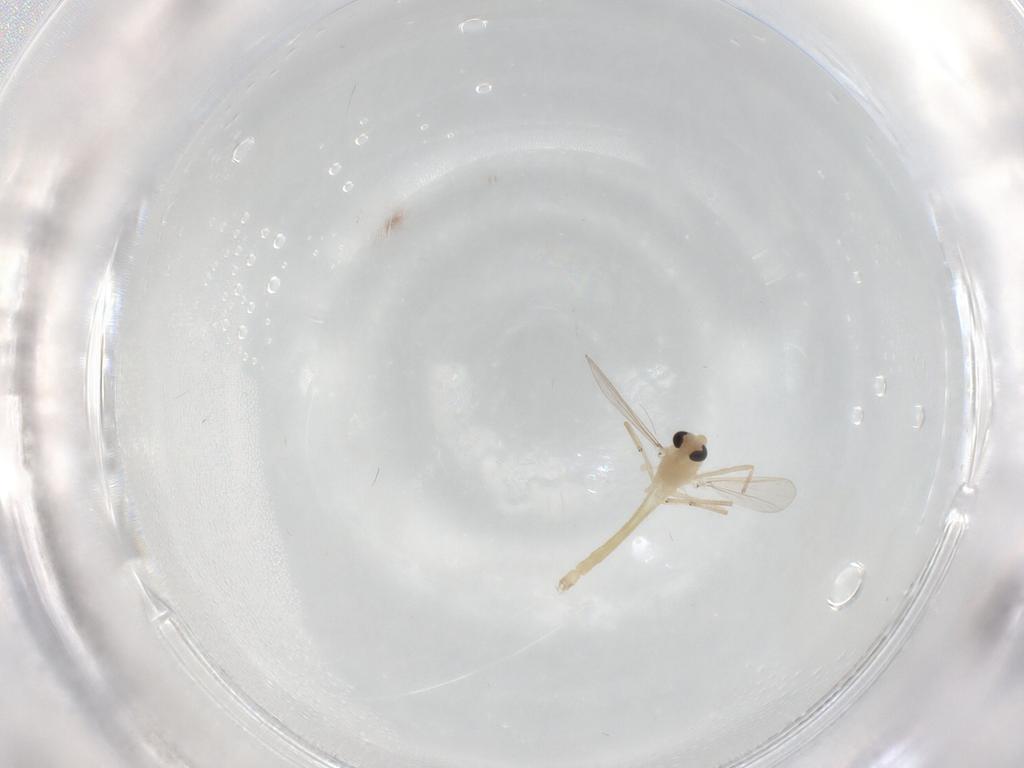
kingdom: Animalia
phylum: Arthropoda
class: Insecta
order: Diptera
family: Chironomidae
